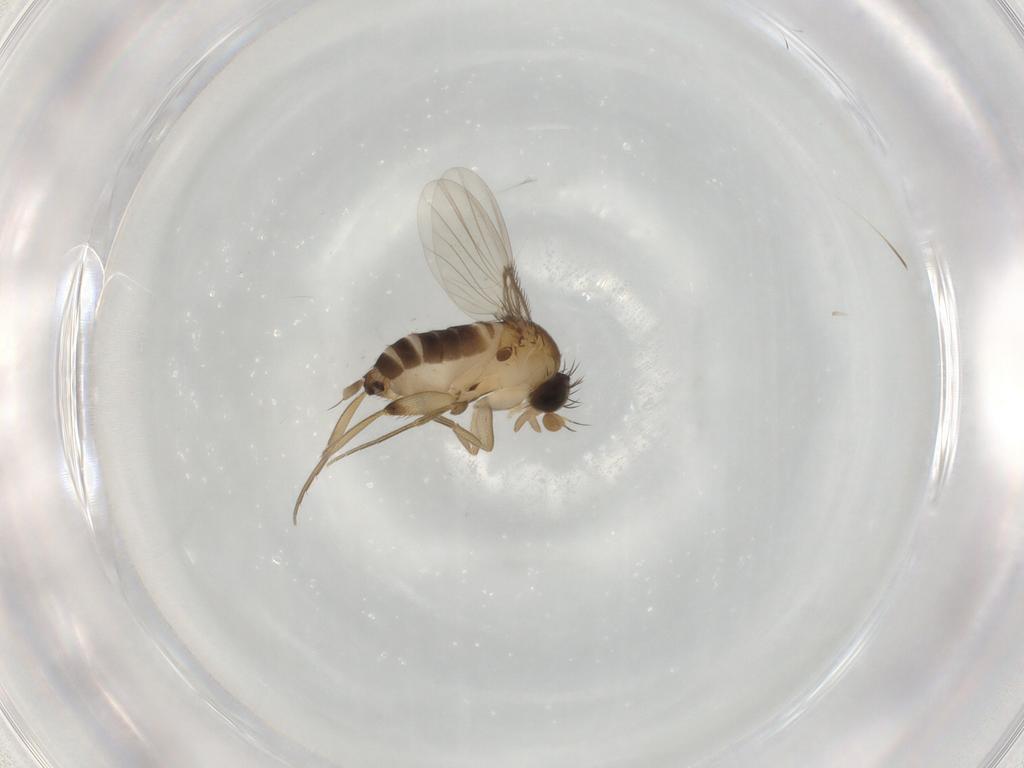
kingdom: Animalia
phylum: Arthropoda
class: Insecta
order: Diptera
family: Phoridae
